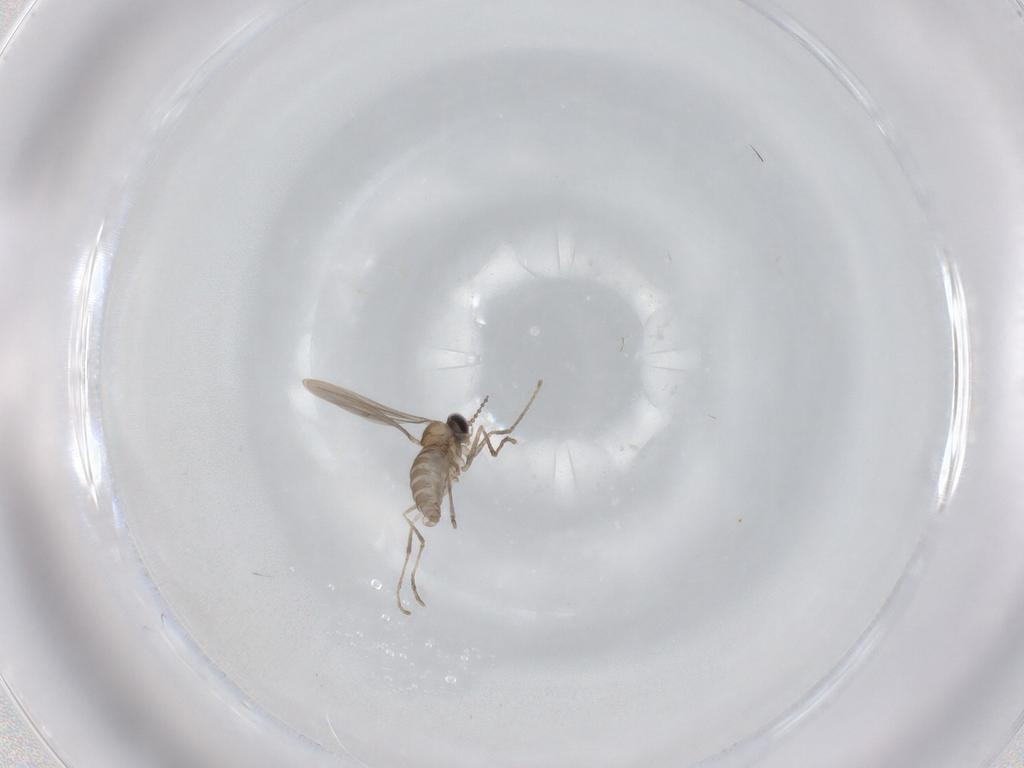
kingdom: Animalia
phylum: Arthropoda
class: Insecta
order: Diptera
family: Cecidomyiidae
